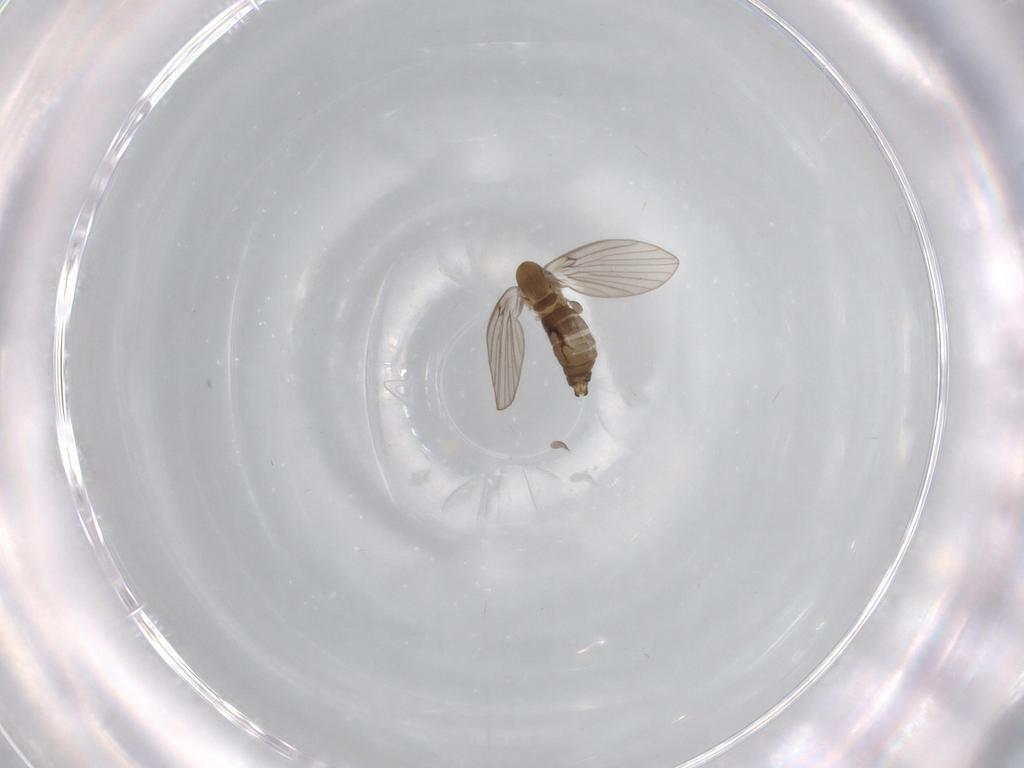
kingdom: Animalia
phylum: Arthropoda
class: Insecta
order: Diptera
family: Psychodidae
